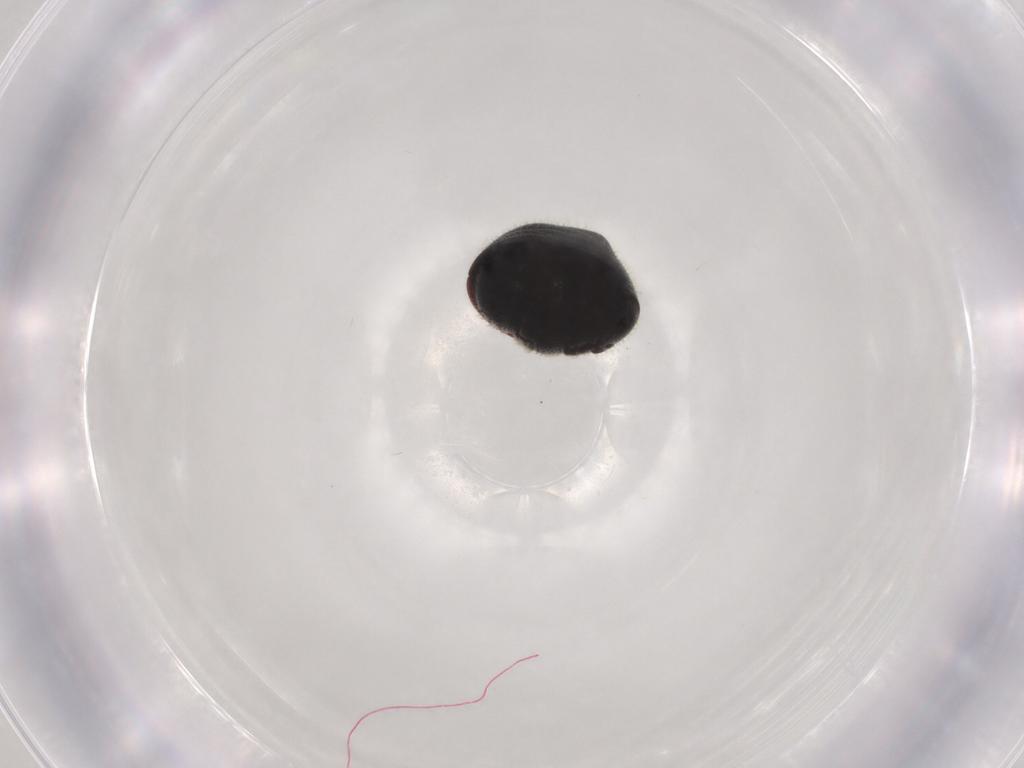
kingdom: Animalia
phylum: Arthropoda
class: Insecta
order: Coleoptera
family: Ptinidae
